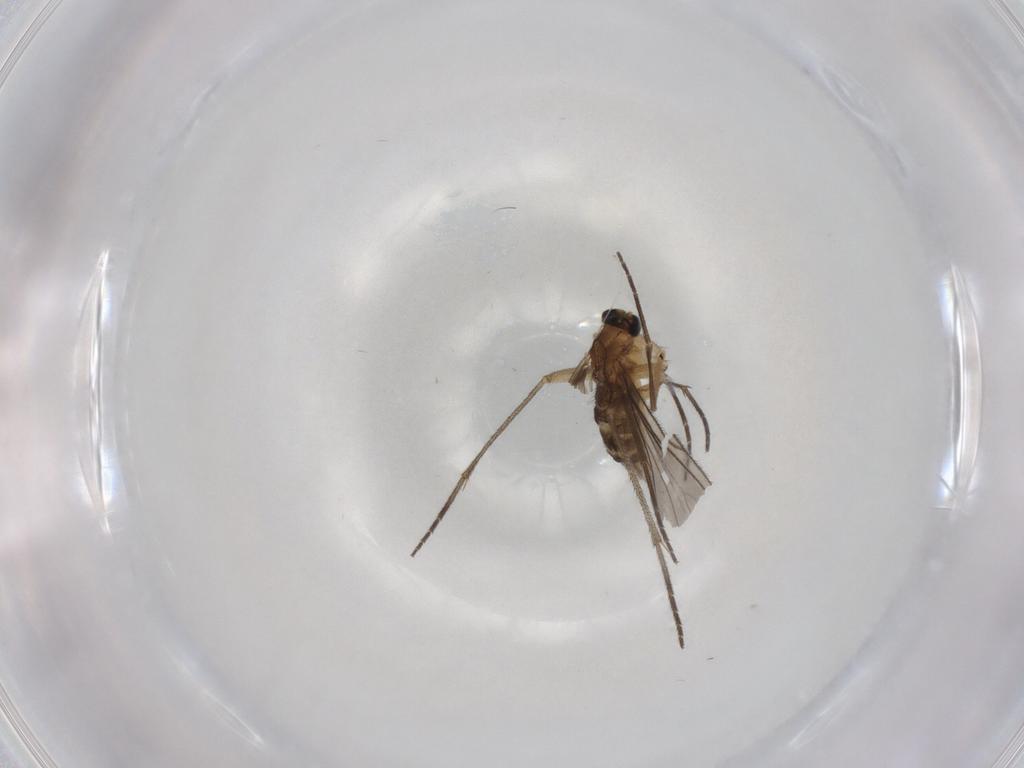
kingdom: Animalia
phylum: Arthropoda
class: Insecta
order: Diptera
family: Sciaridae
